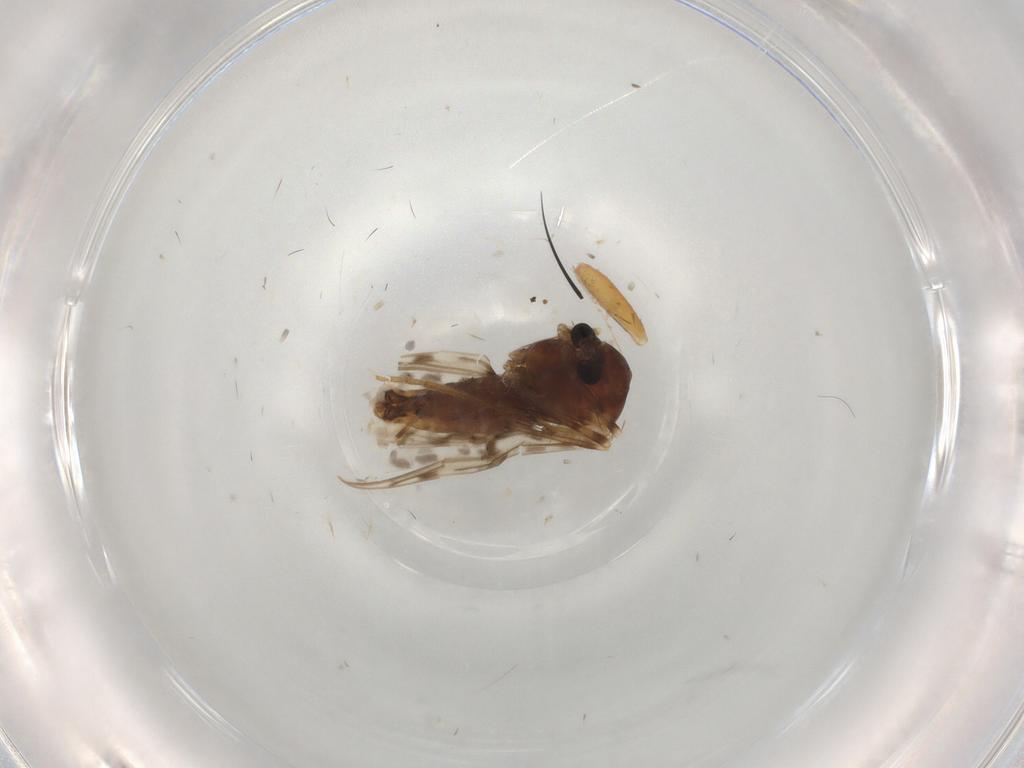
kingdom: Animalia
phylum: Arthropoda
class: Insecta
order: Diptera
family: Chironomidae
